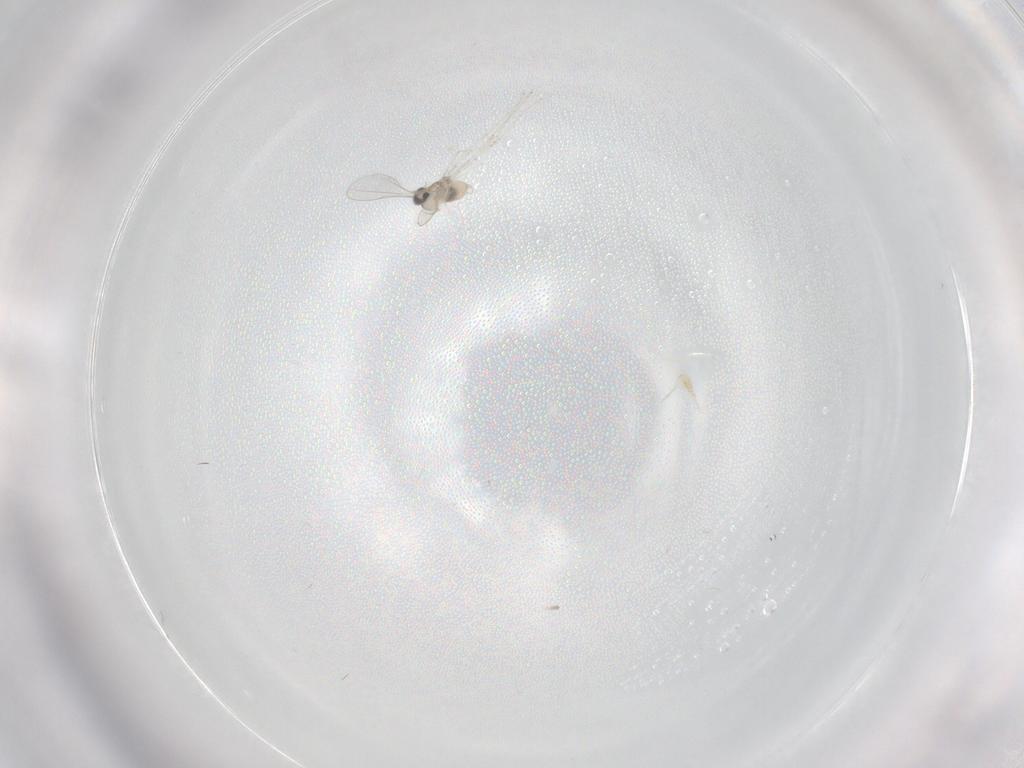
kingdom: Animalia
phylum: Arthropoda
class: Insecta
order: Diptera
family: Cecidomyiidae
